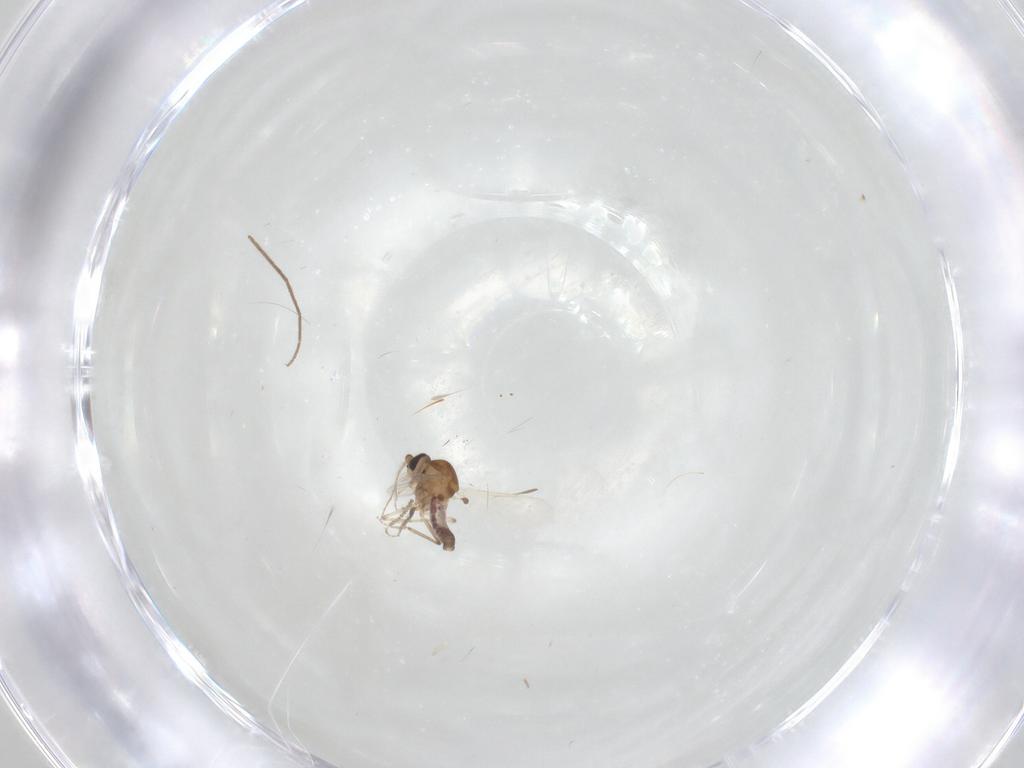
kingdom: Animalia
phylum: Arthropoda
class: Insecta
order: Diptera
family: Chironomidae
